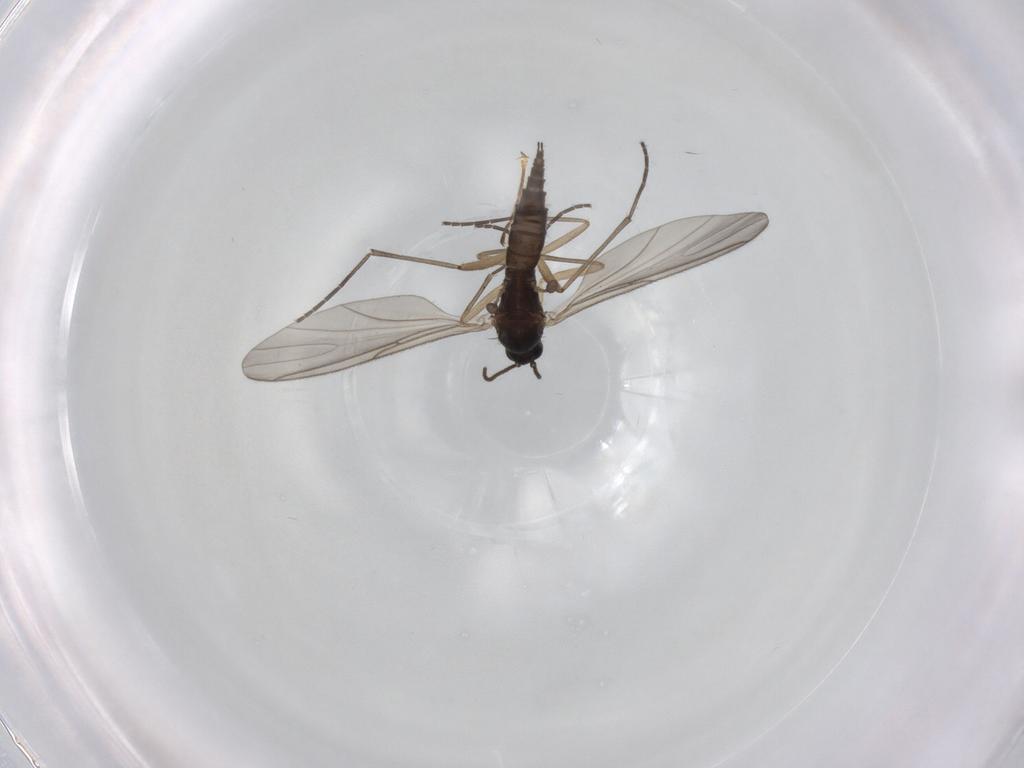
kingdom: Animalia
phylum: Arthropoda
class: Insecta
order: Diptera
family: Sciaridae
